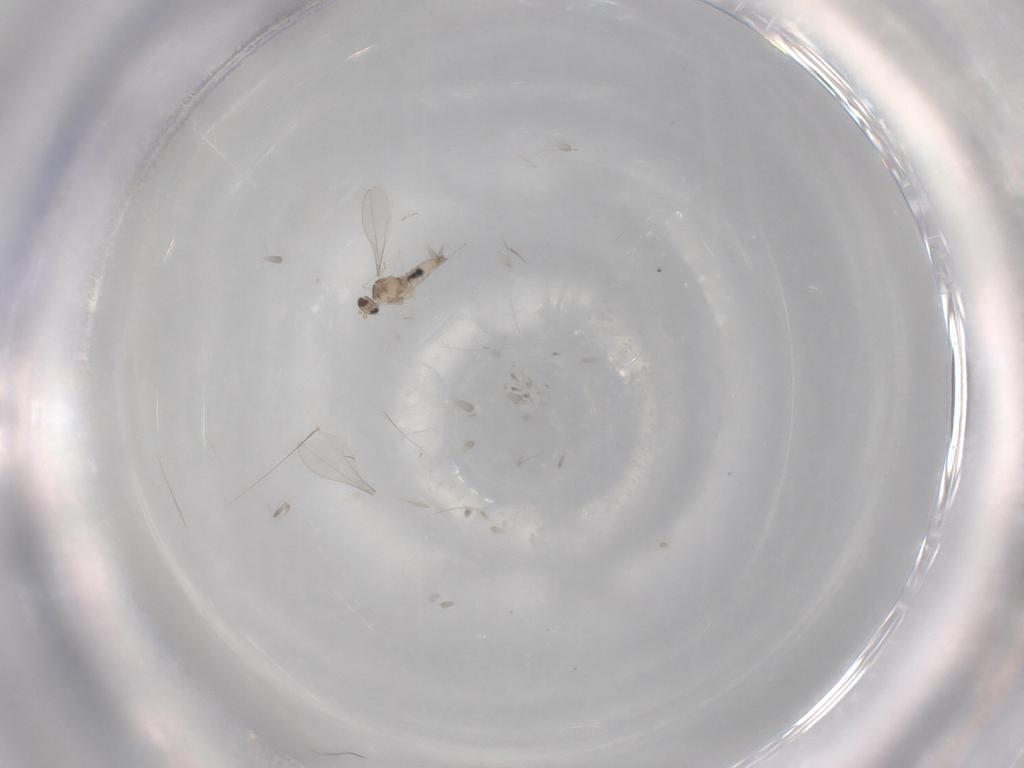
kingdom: Animalia
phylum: Arthropoda
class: Insecta
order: Diptera
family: Cecidomyiidae
